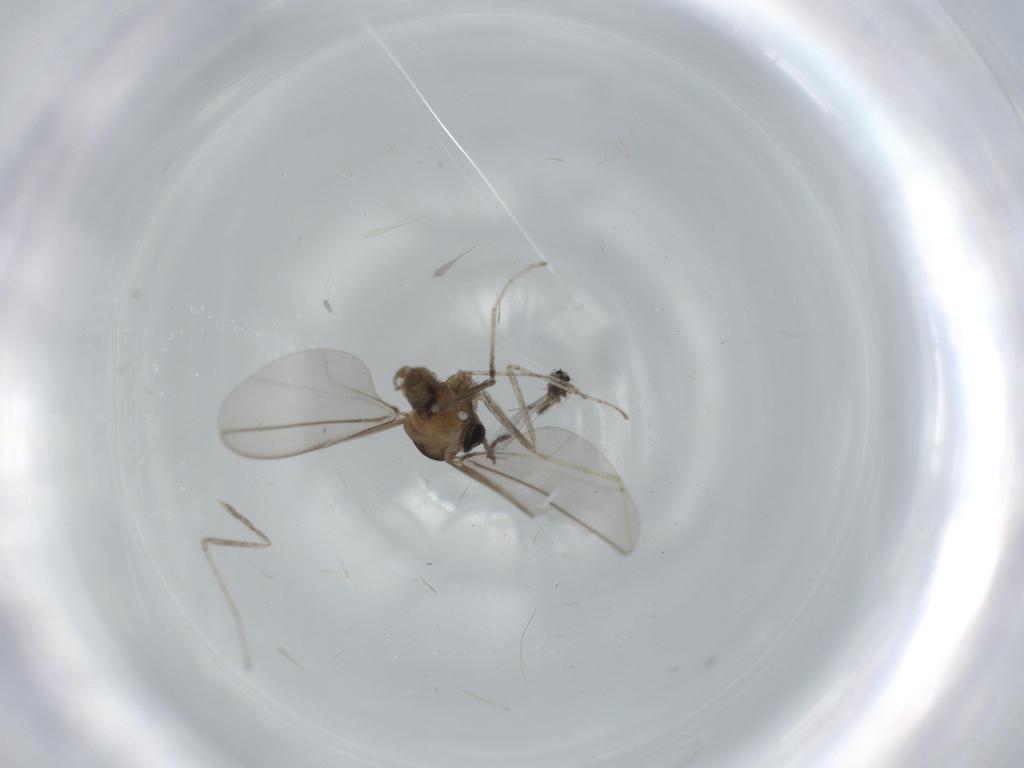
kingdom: Animalia
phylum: Arthropoda
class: Insecta
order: Diptera
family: Cecidomyiidae
